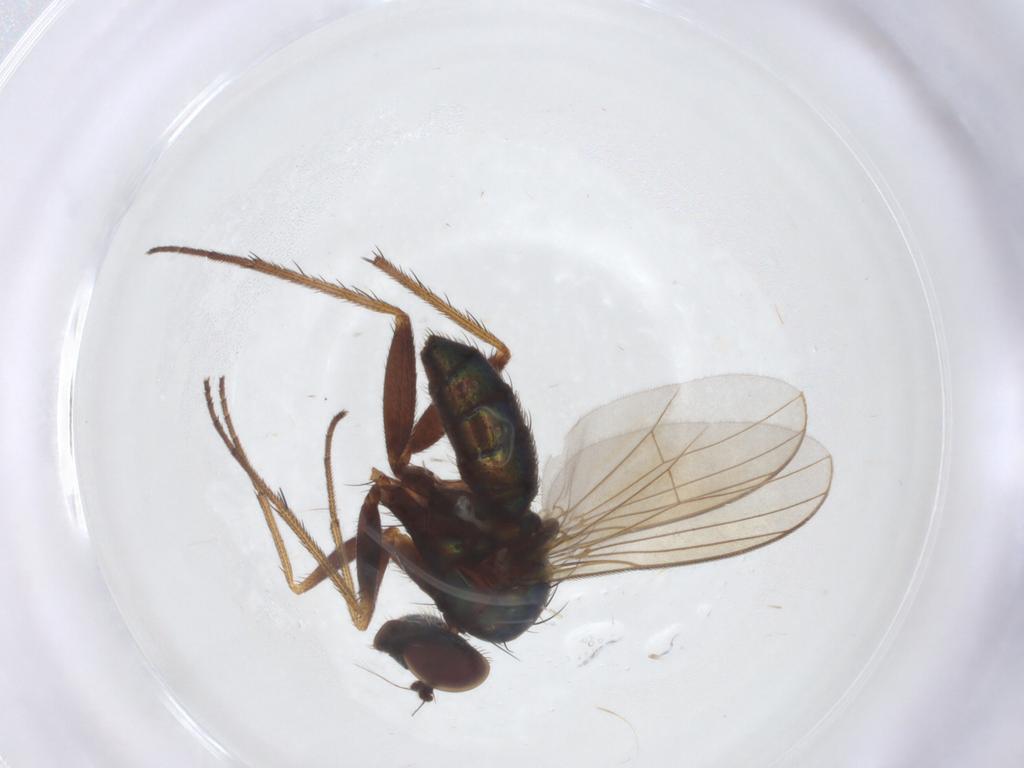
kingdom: Animalia
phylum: Arthropoda
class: Insecta
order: Diptera
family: Dolichopodidae
